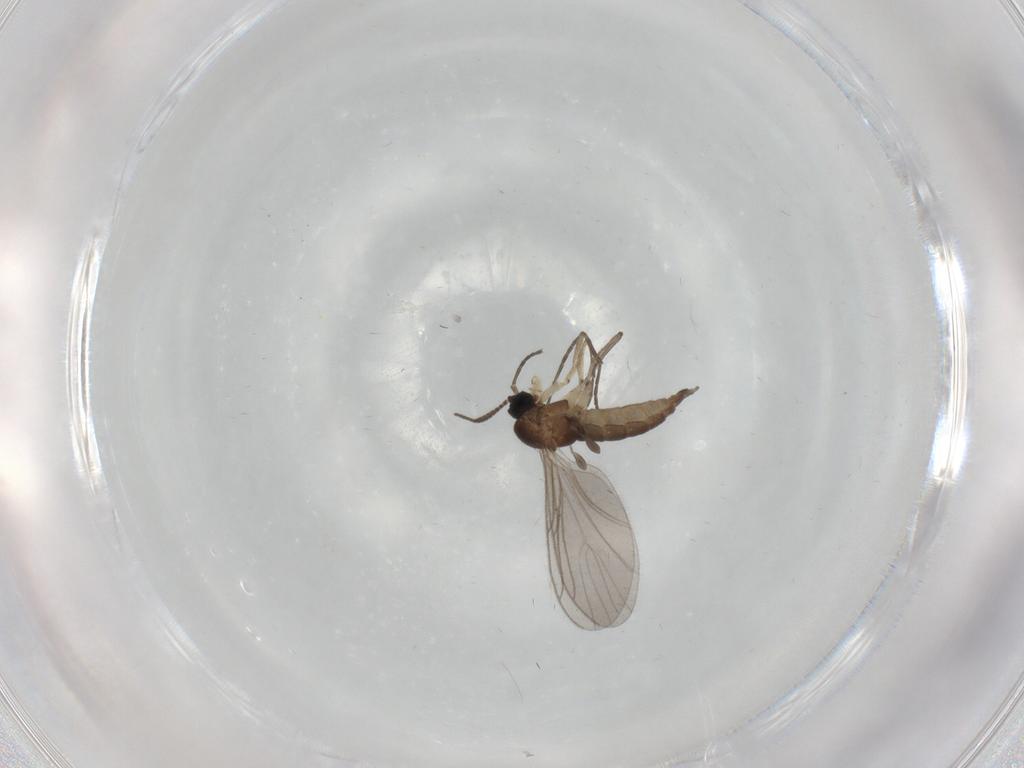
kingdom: Animalia
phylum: Arthropoda
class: Insecta
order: Diptera
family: Sciaridae
